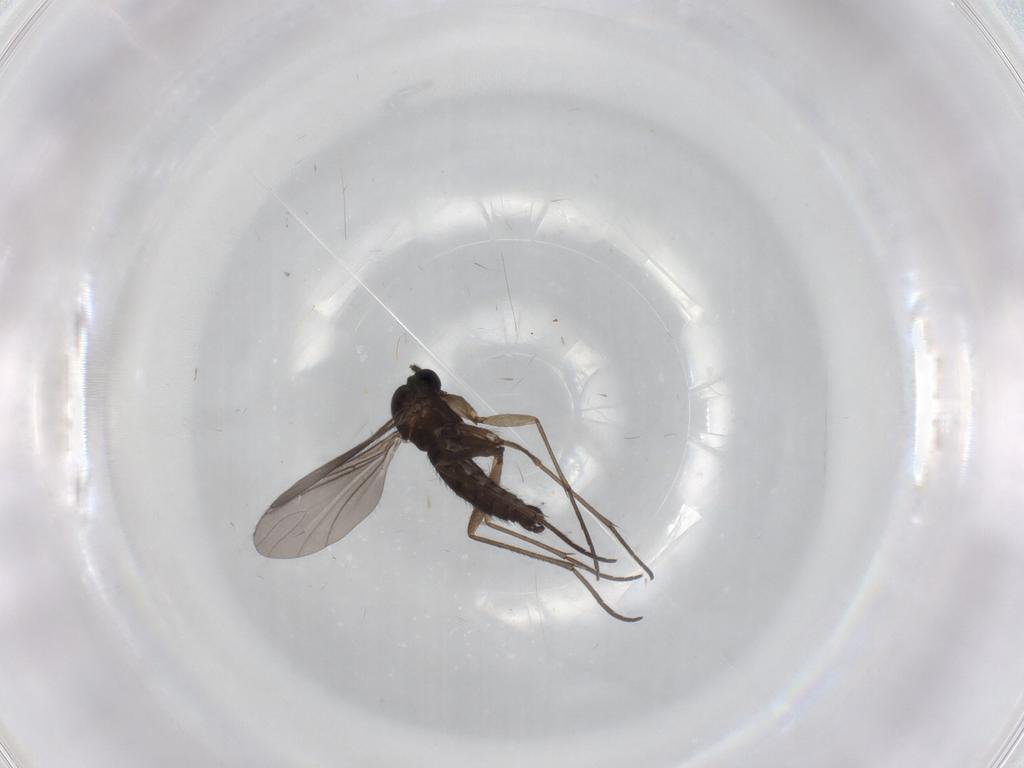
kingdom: Animalia
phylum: Arthropoda
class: Insecta
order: Diptera
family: Sciaridae
